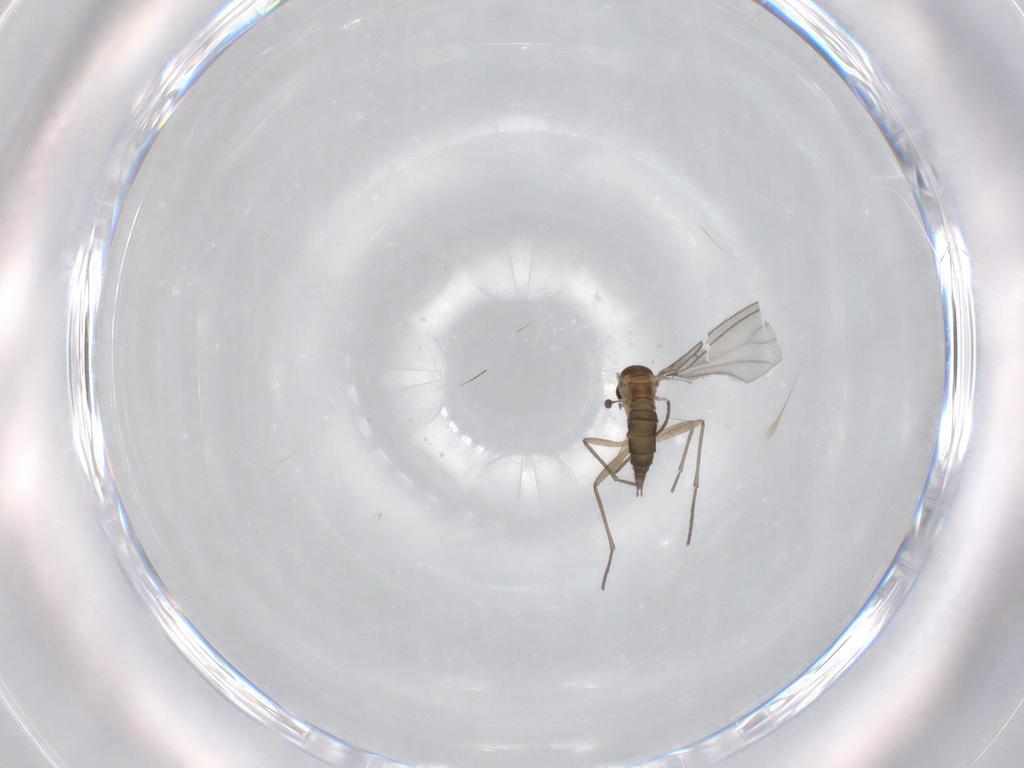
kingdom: Animalia
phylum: Arthropoda
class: Insecta
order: Diptera
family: Sciaridae
